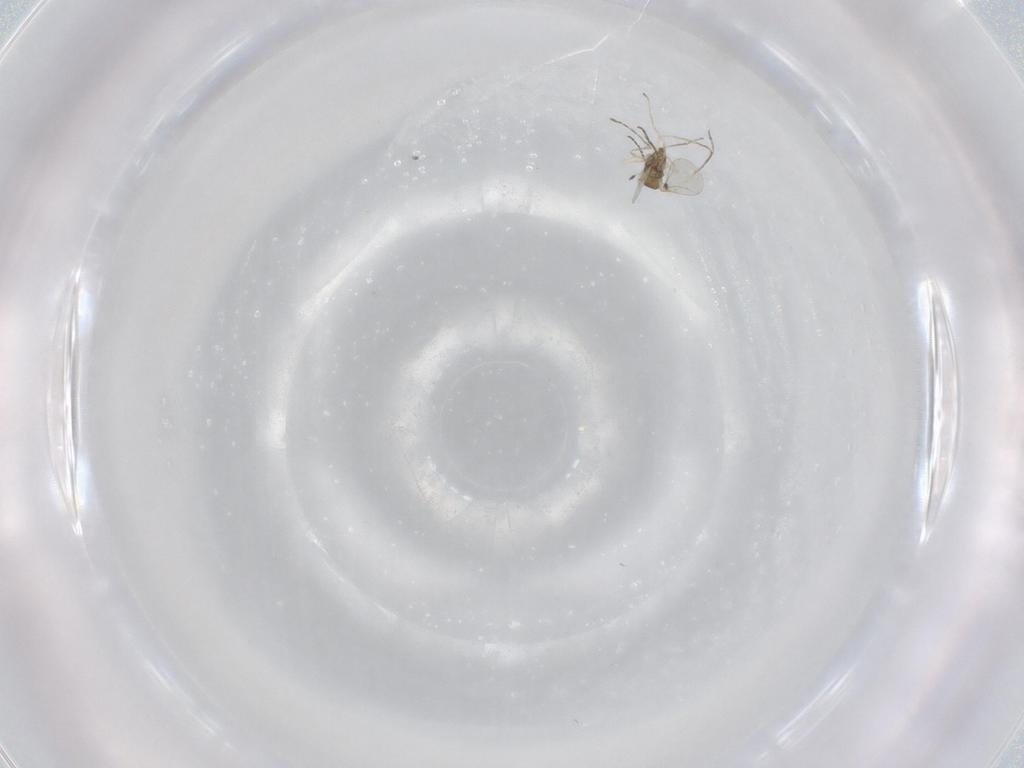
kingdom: Animalia
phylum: Arthropoda
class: Insecta
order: Diptera
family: Cecidomyiidae
